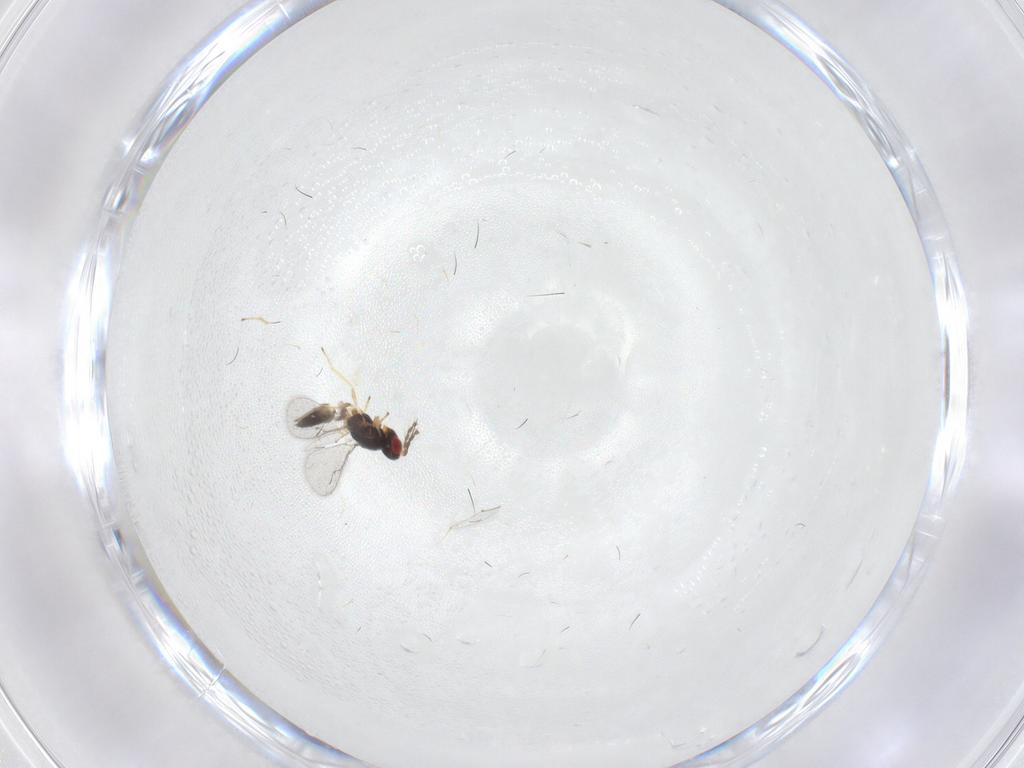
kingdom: Animalia
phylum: Arthropoda
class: Insecta
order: Hymenoptera
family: Eulophidae
